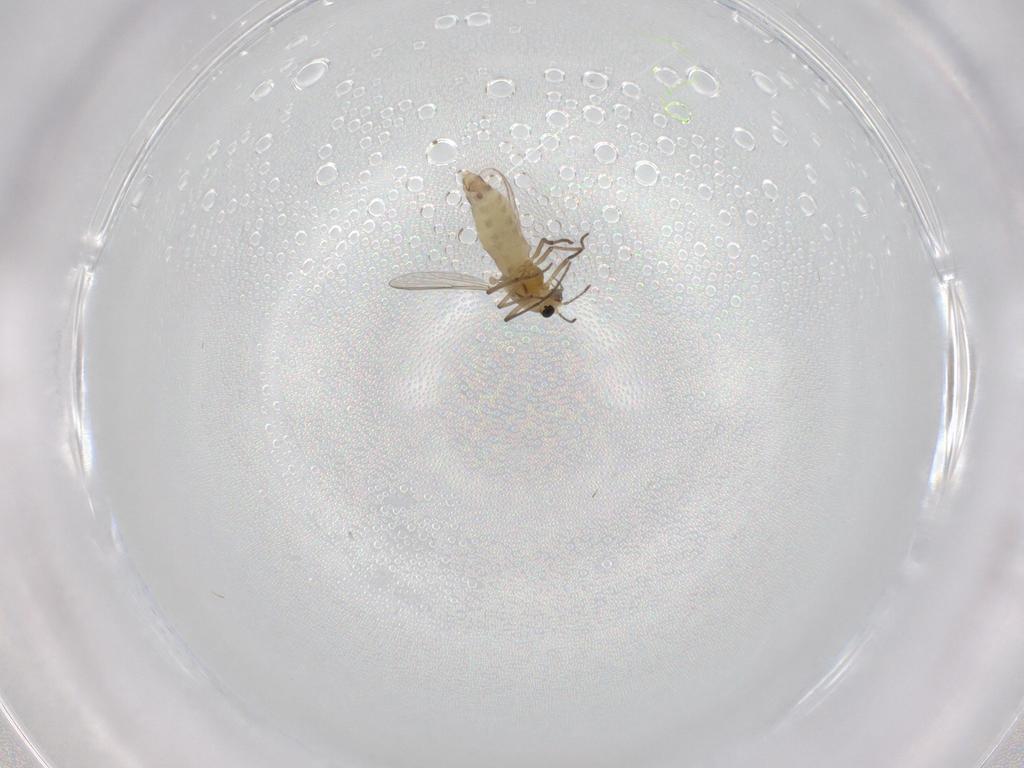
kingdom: Animalia
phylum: Arthropoda
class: Insecta
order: Diptera
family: Chironomidae
